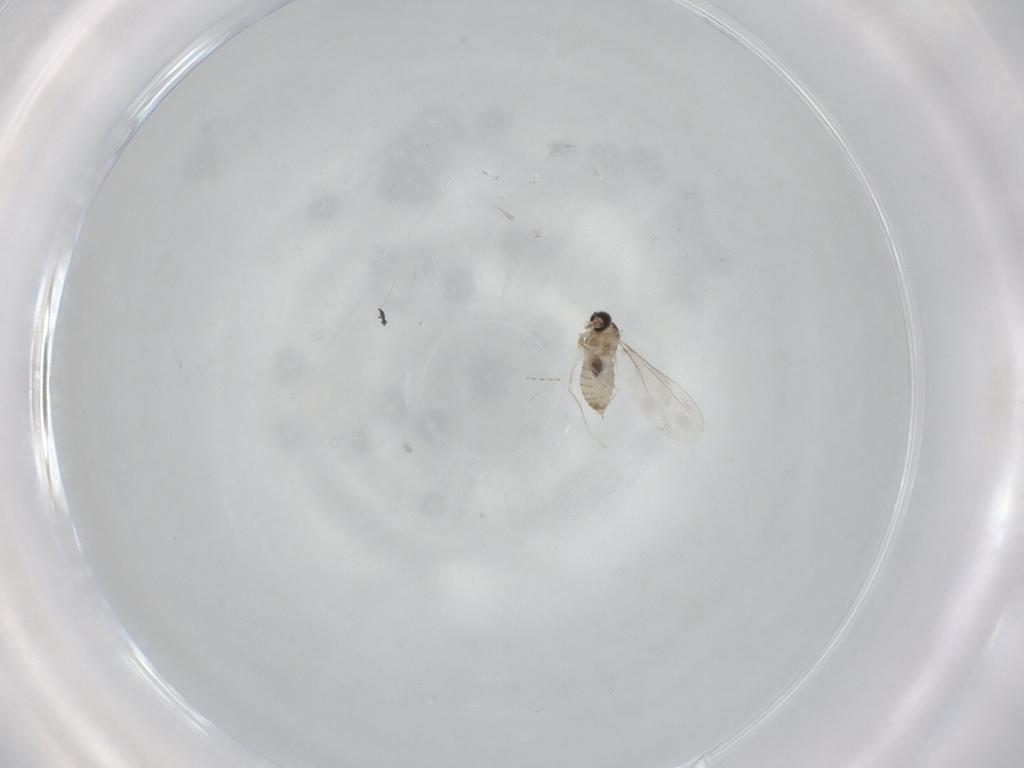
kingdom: Animalia
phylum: Arthropoda
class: Insecta
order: Diptera
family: Cecidomyiidae
